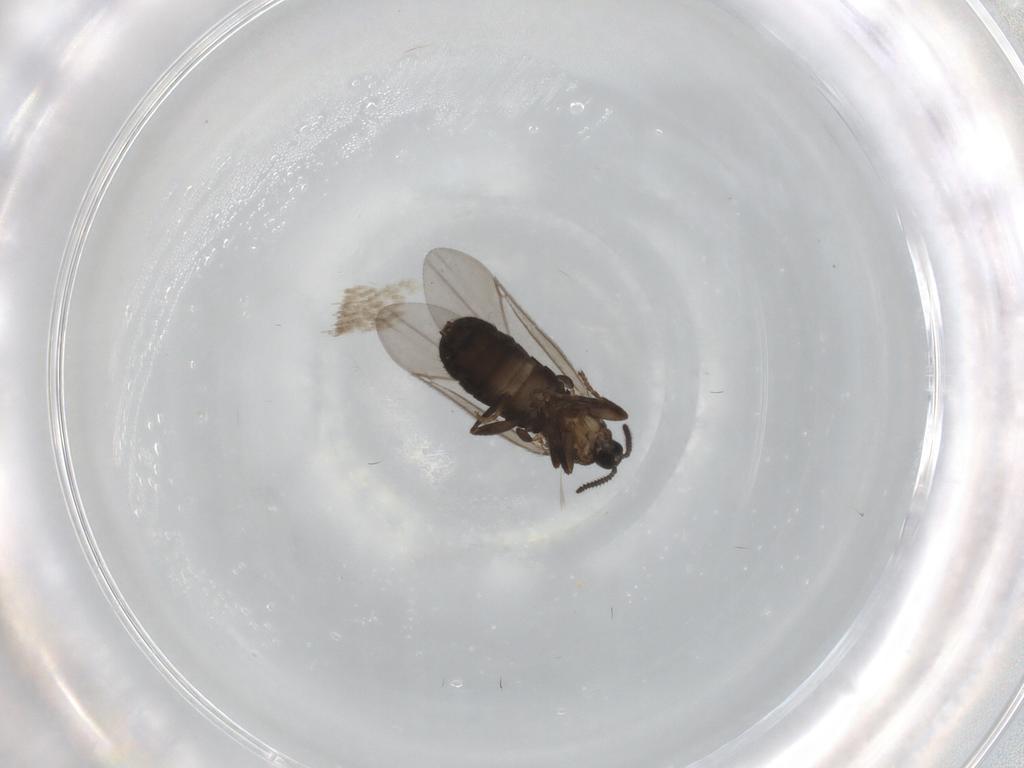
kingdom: Animalia
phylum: Arthropoda
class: Insecta
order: Diptera
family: Scatopsidae
